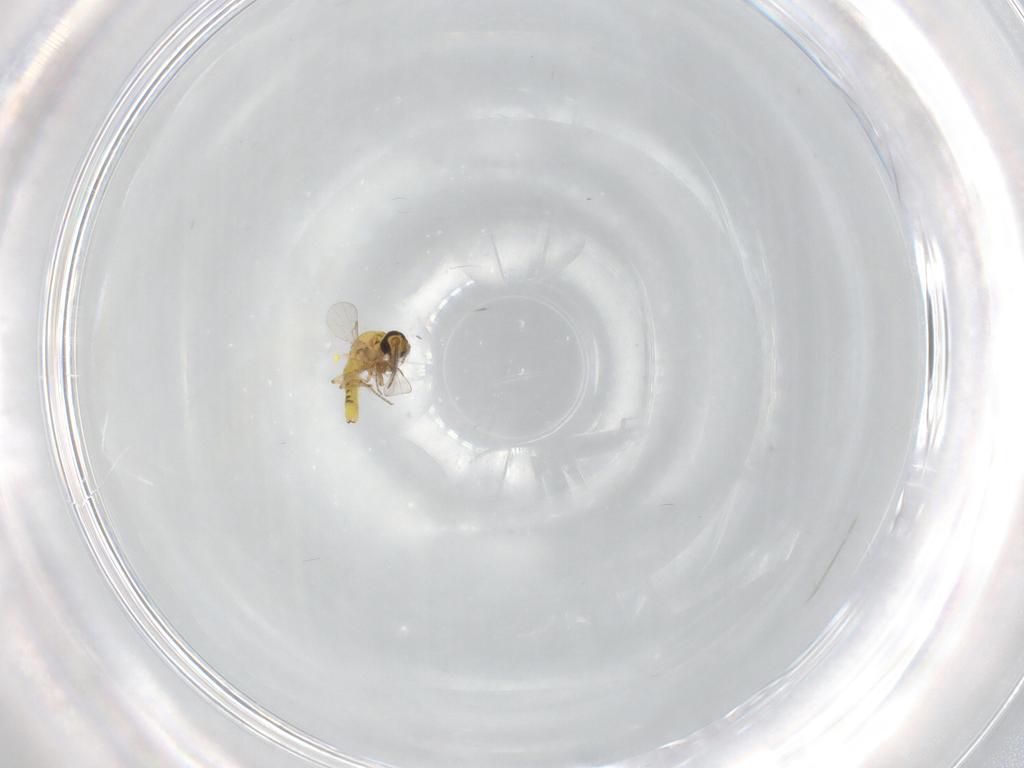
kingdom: Animalia
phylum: Arthropoda
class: Insecta
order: Diptera
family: Ceratopogonidae
